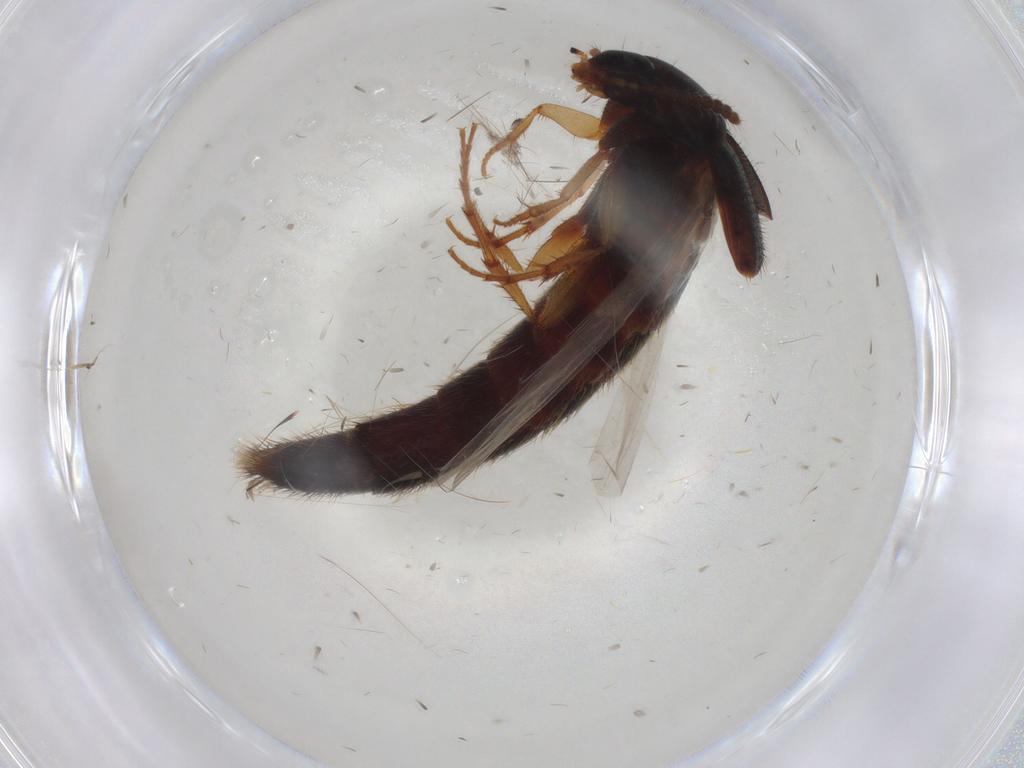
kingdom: Animalia
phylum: Arthropoda
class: Insecta
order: Coleoptera
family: Staphylinidae
